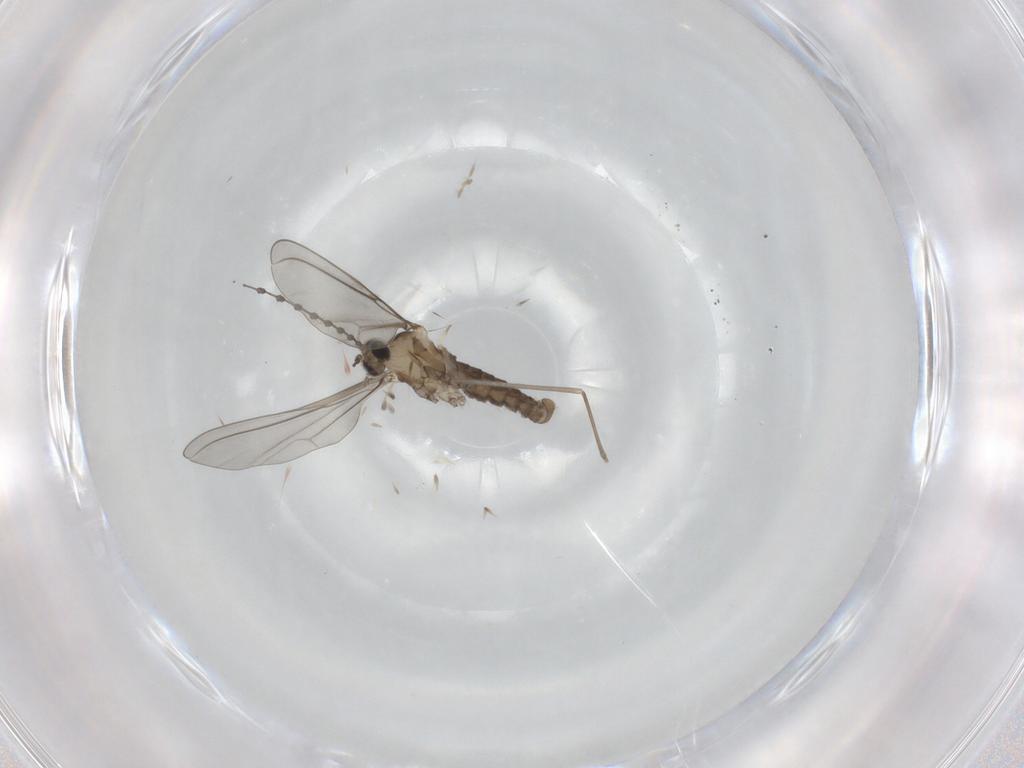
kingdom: Animalia
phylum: Arthropoda
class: Insecta
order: Diptera
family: Cecidomyiidae
